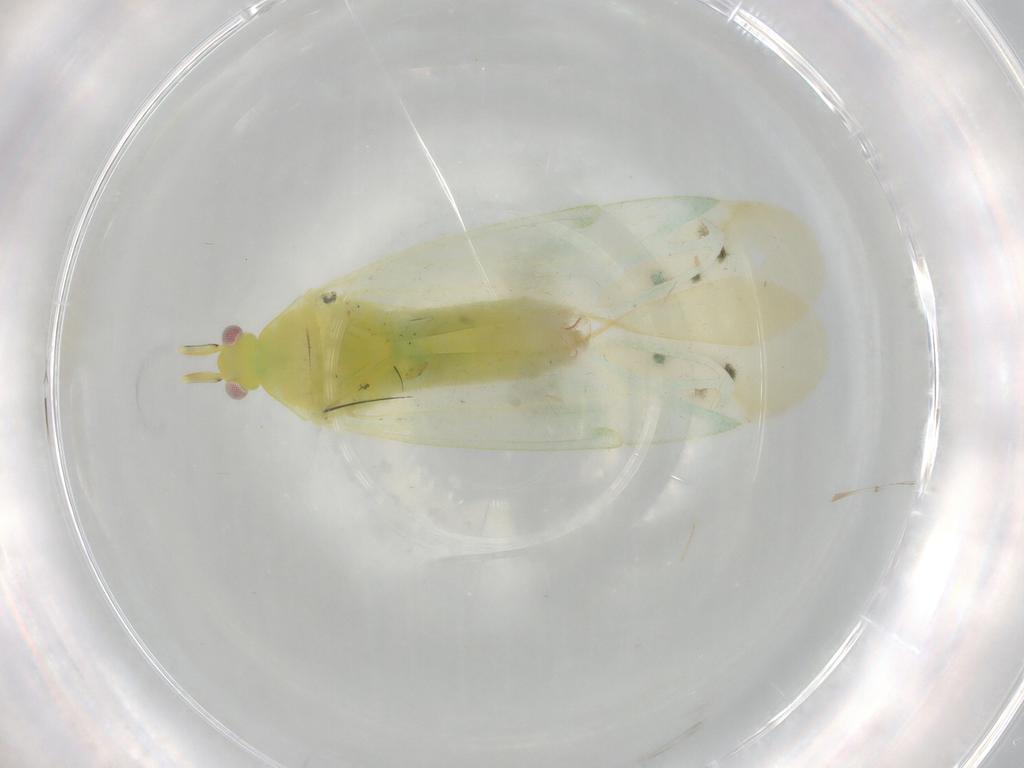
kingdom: Animalia
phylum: Arthropoda
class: Insecta
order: Hemiptera
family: Miridae
